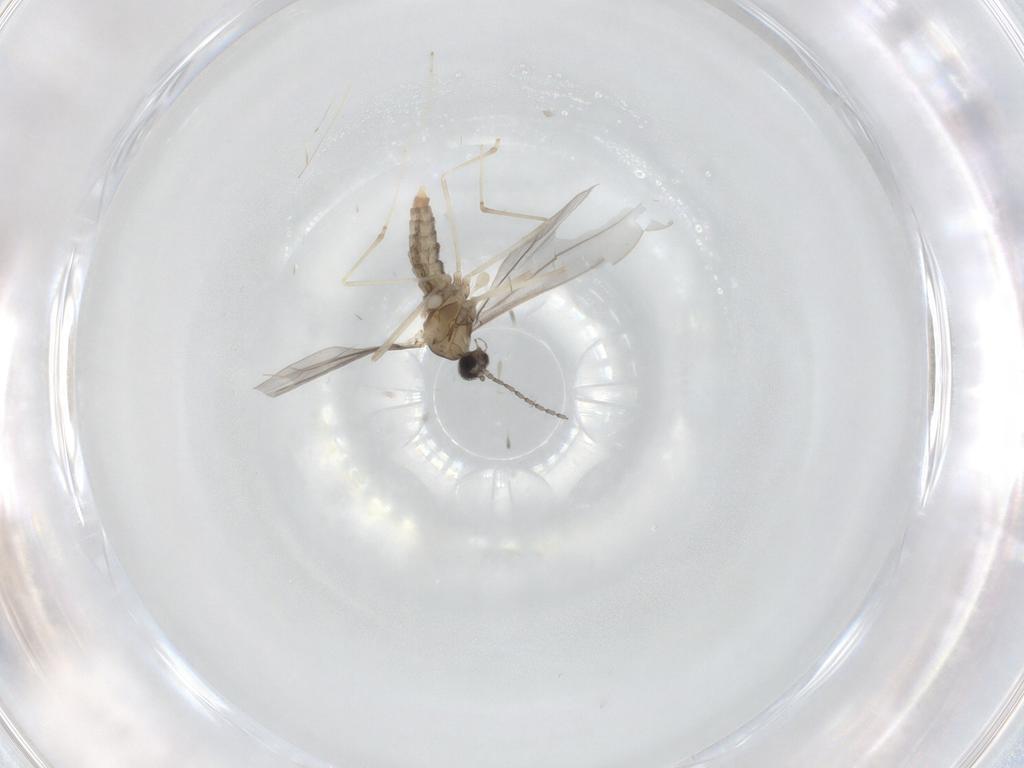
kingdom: Animalia
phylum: Arthropoda
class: Insecta
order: Diptera
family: Cecidomyiidae
